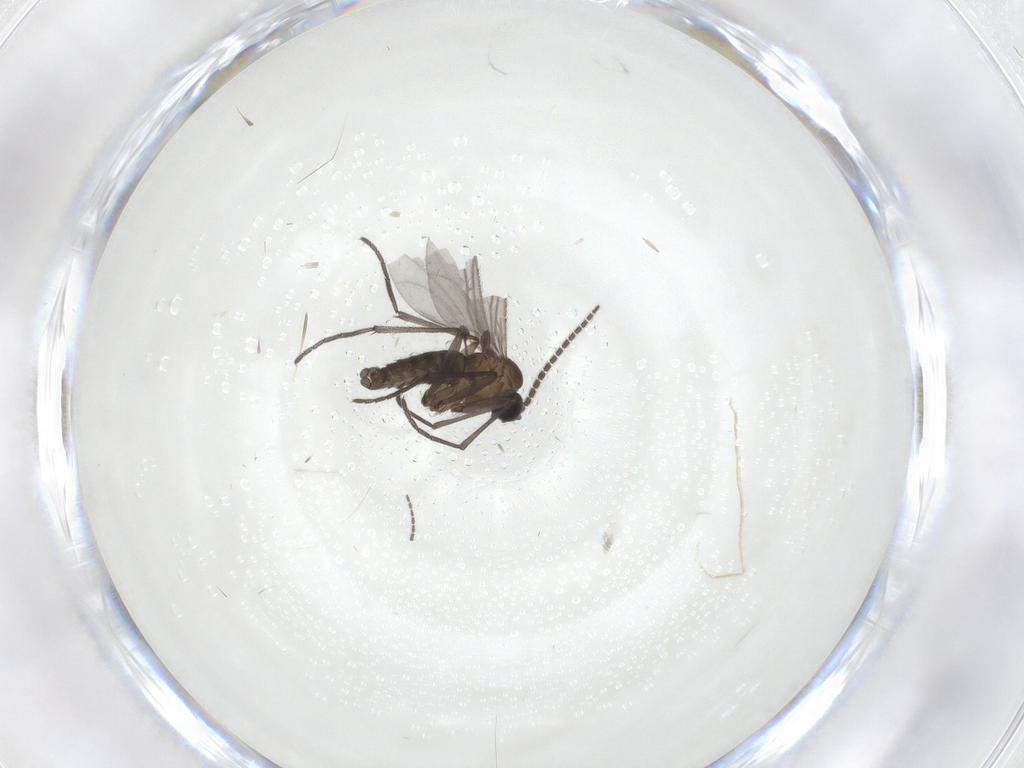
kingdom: Animalia
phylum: Arthropoda
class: Insecta
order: Diptera
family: Sciaridae
